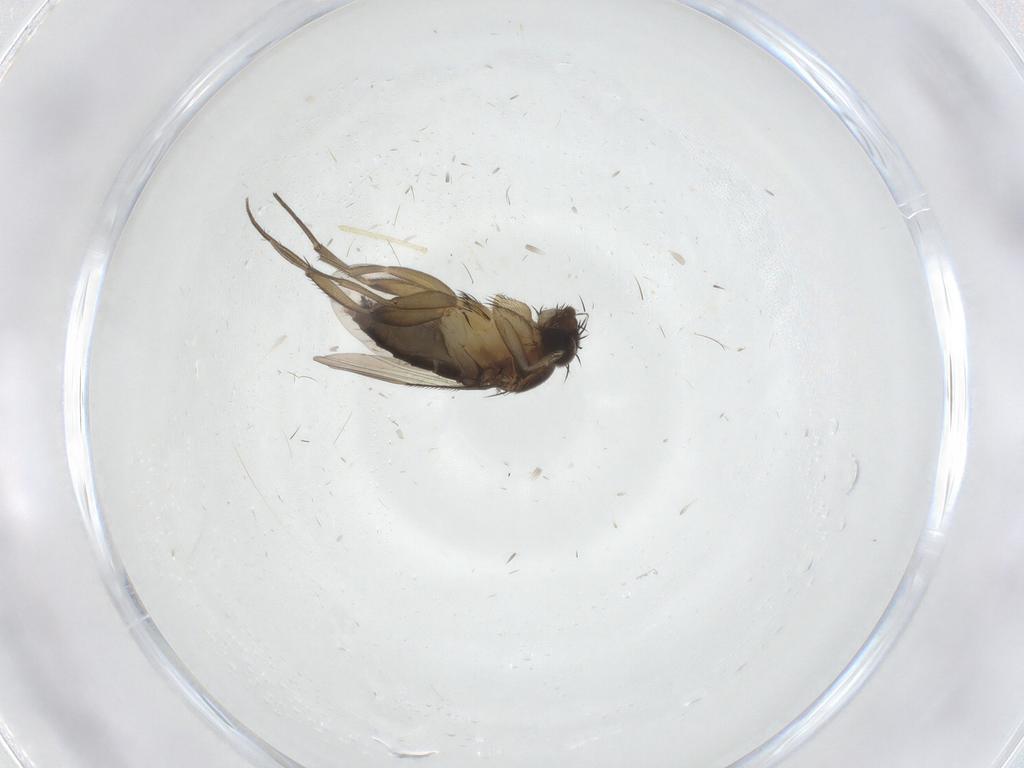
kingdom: Animalia
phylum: Arthropoda
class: Insecta
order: Diptera
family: Phoridae
